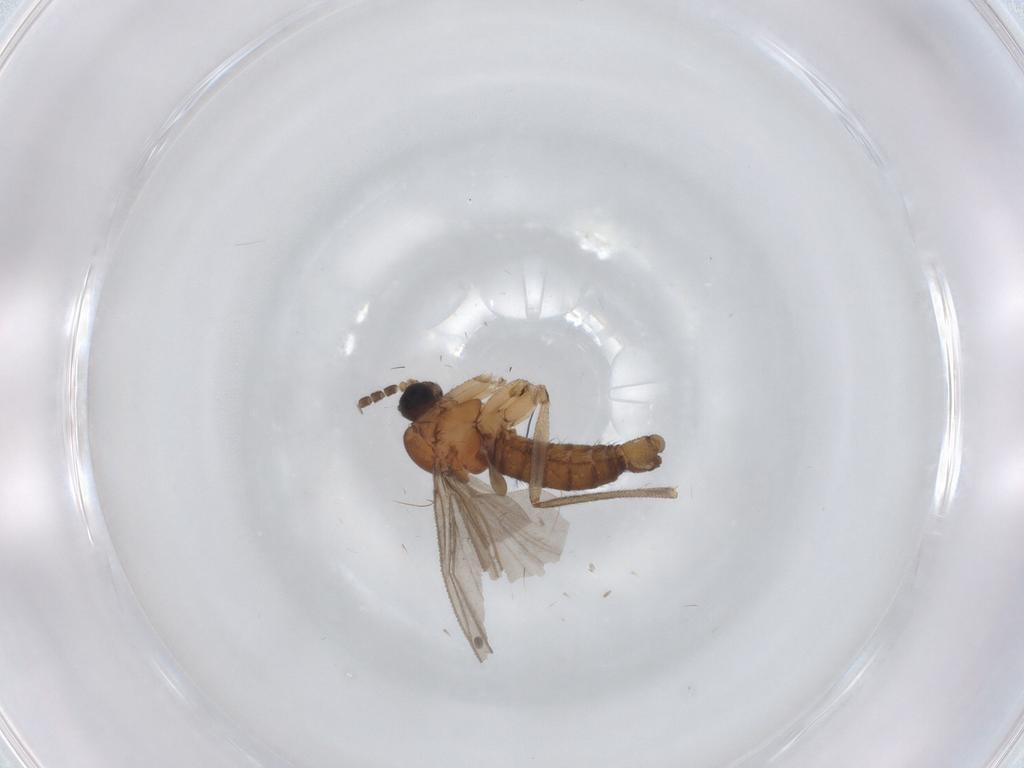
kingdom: Animalia
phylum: Arthropoda
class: Insecta
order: Diptera
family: Sciaridae
